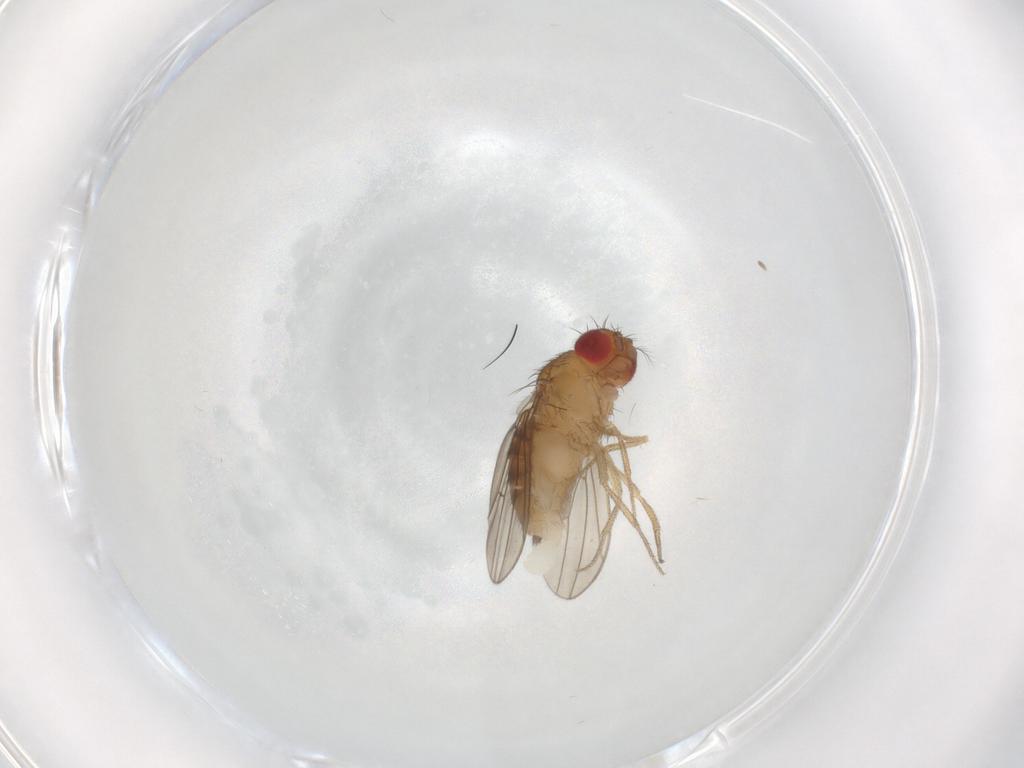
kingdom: Animalia
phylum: Arthropoda
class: Insecta
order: Diptera
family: Drosophilidae
